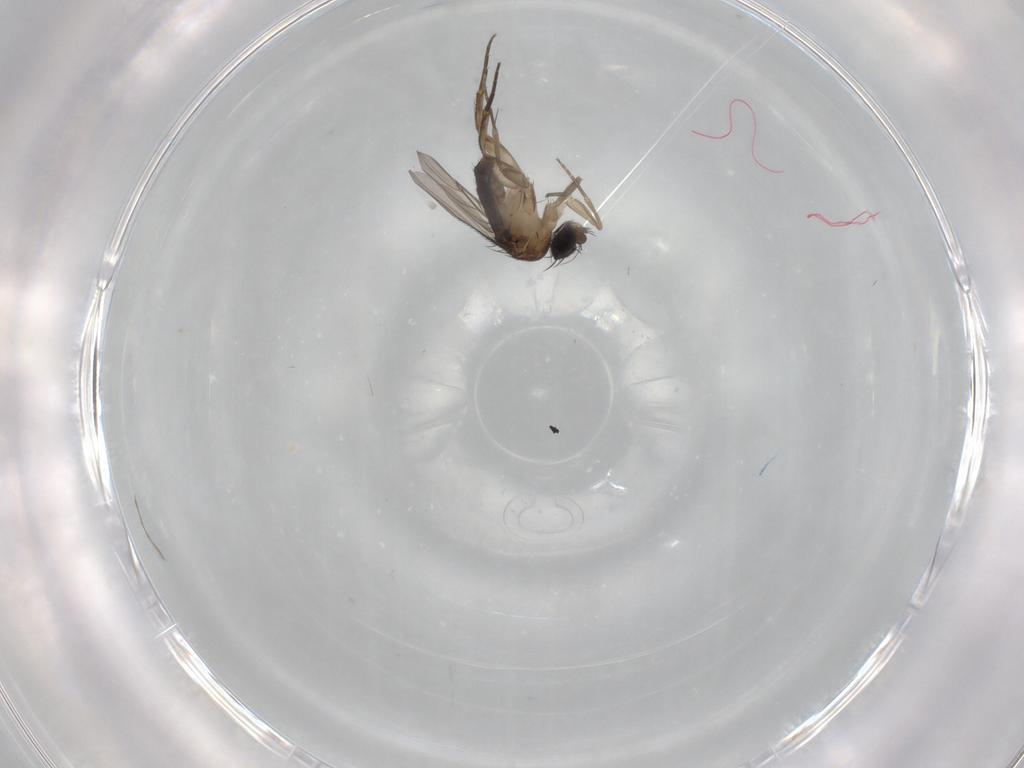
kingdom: Animalia
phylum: Arthropoda
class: Insecta
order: Diptera
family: Phoridae
